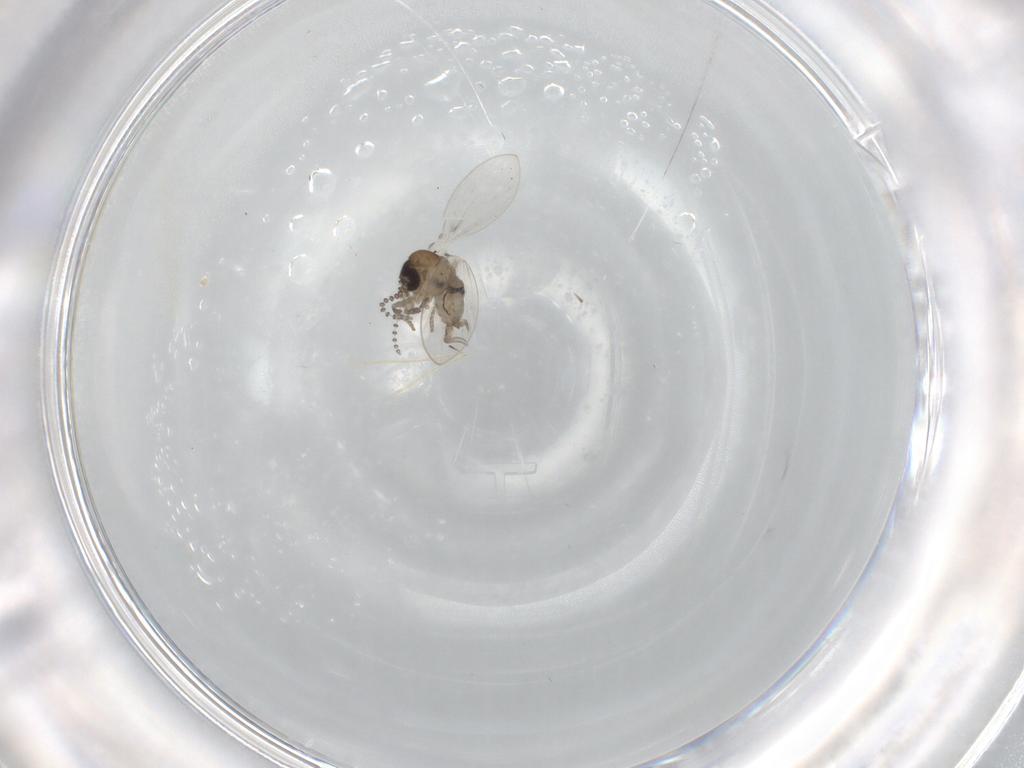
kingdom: Animalia
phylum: Arthropoda
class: Insecta
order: Diptera
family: Psychodidae
